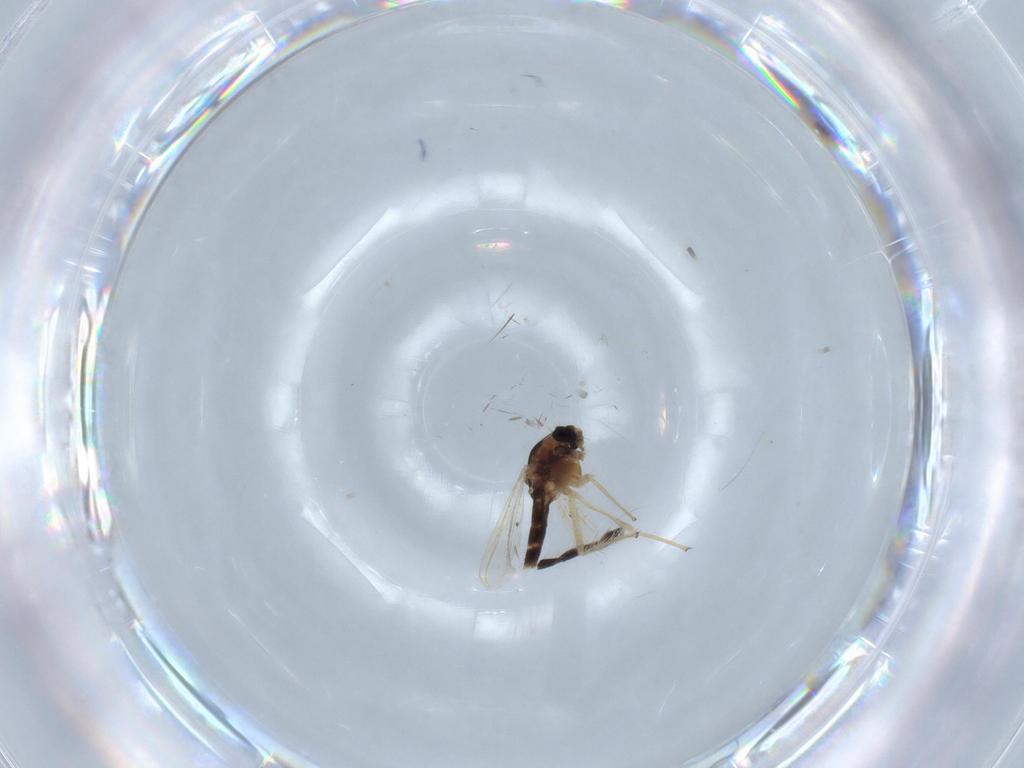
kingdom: Animalia
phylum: Arthropoda
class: Insecta
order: Diptera
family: Chironomidae
